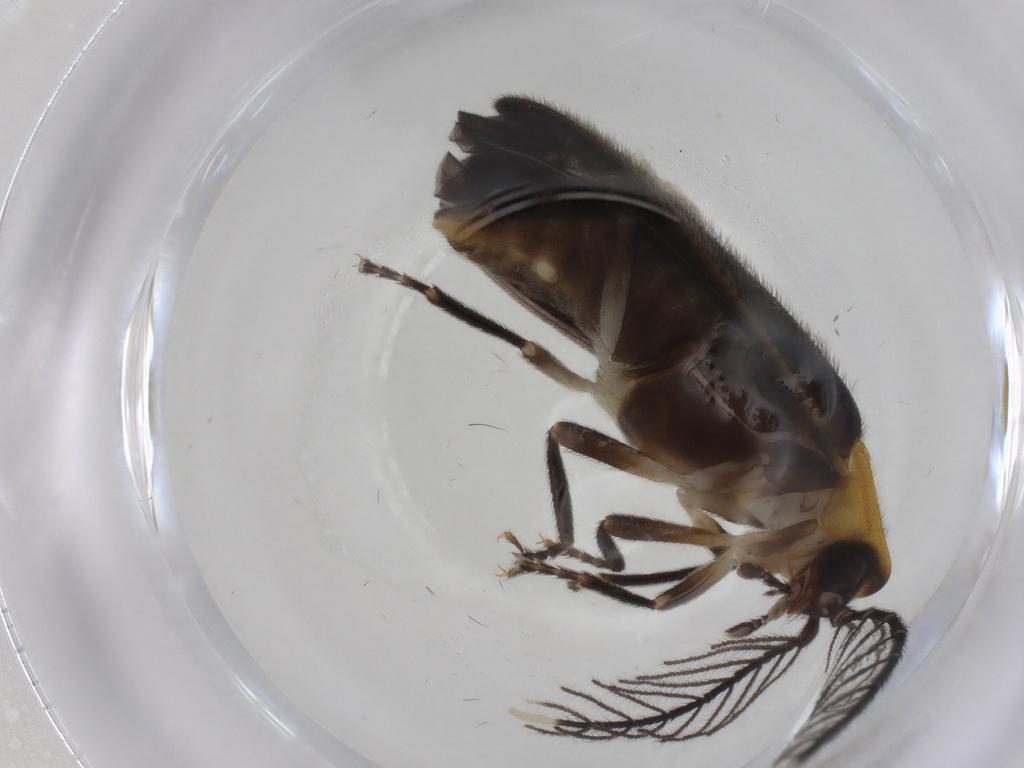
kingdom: Animalia
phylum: Arthropoda
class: Insecta
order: Coleoptera
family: Lampyridae
